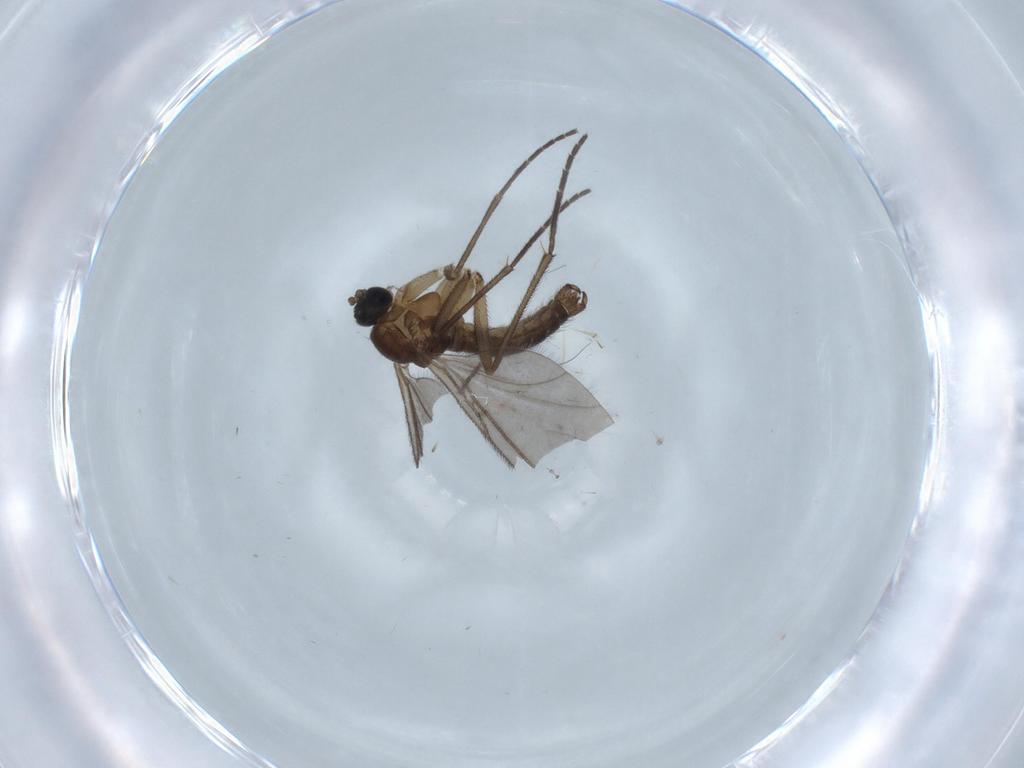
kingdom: Animalia
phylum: Arthropoda
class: Insecta
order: Diptera
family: Sciaridae
